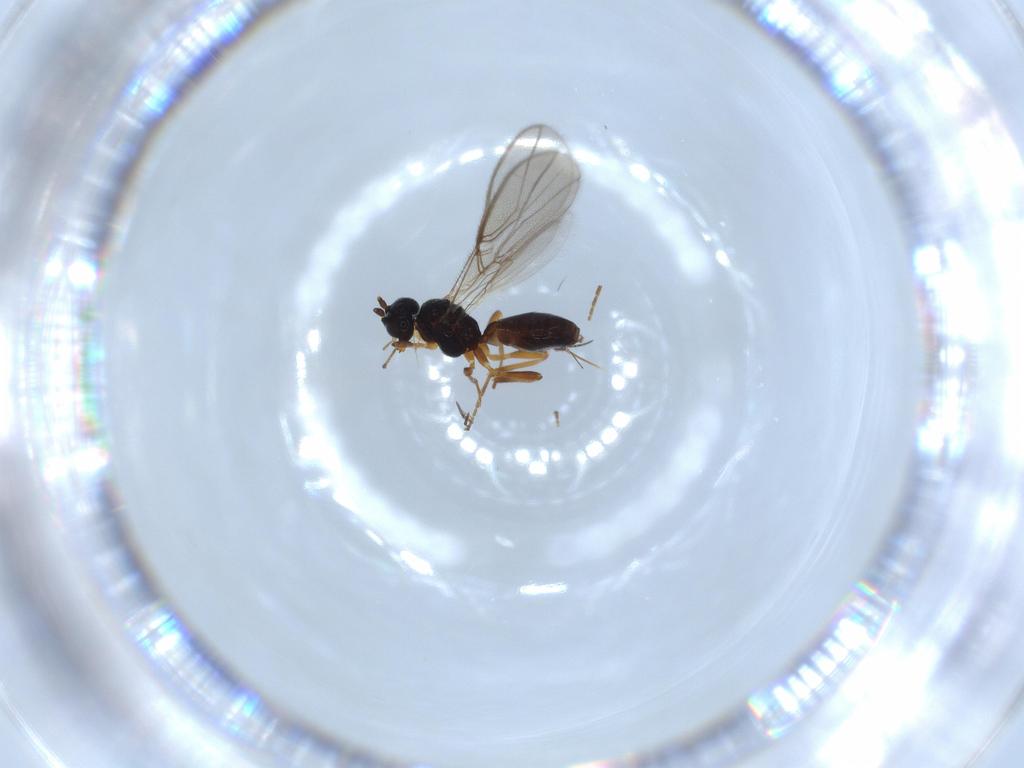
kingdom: Animalia
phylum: Arthropoda
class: Insecta
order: Hymenoptera
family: Braconidae
